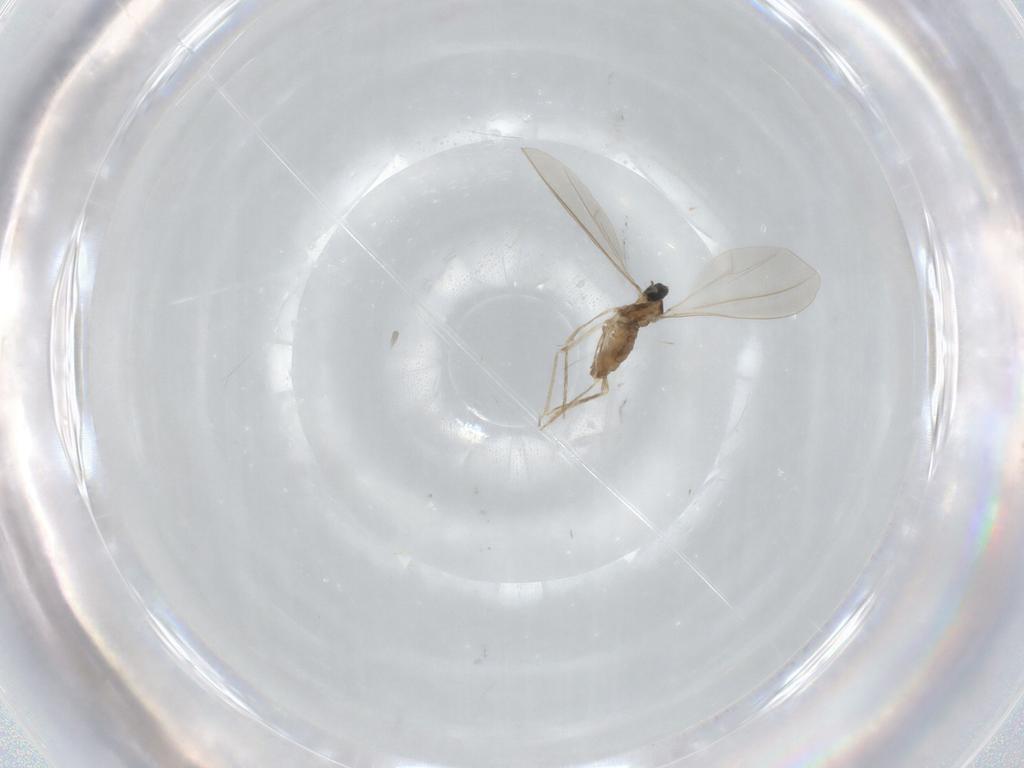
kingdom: Animalia
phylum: Arthropoda
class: Insecta
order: Diptera
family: Cecidomyiidae
